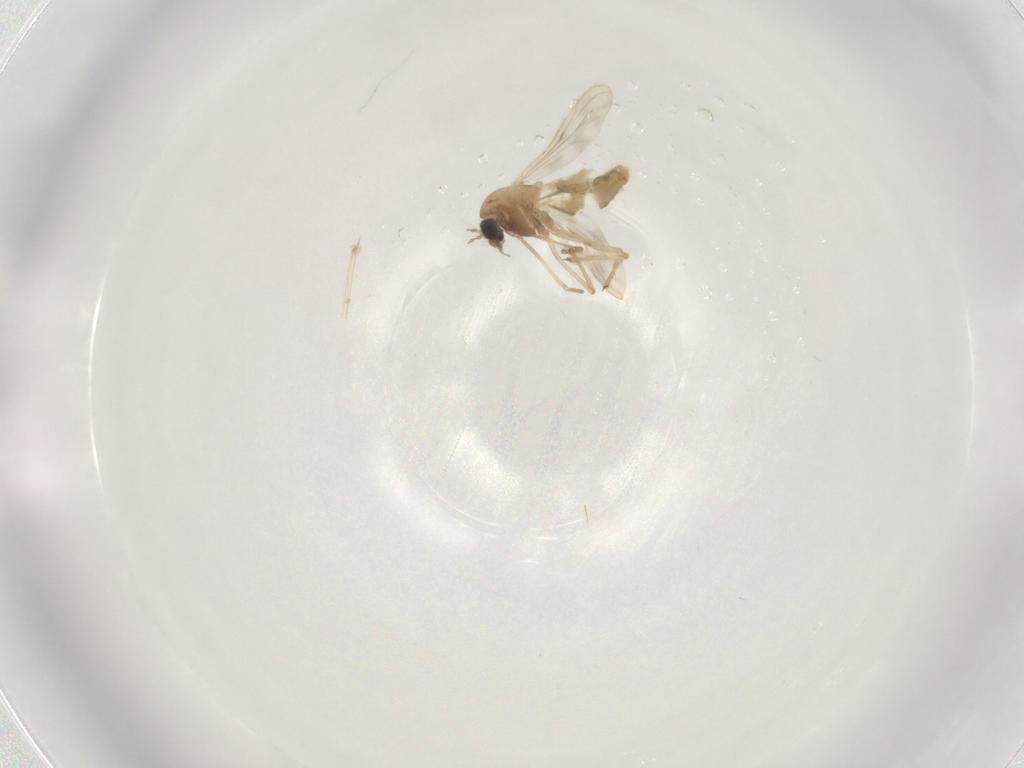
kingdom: Animalia
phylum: Arthropoda
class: Insecta
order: Diptera
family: Chironomidae
